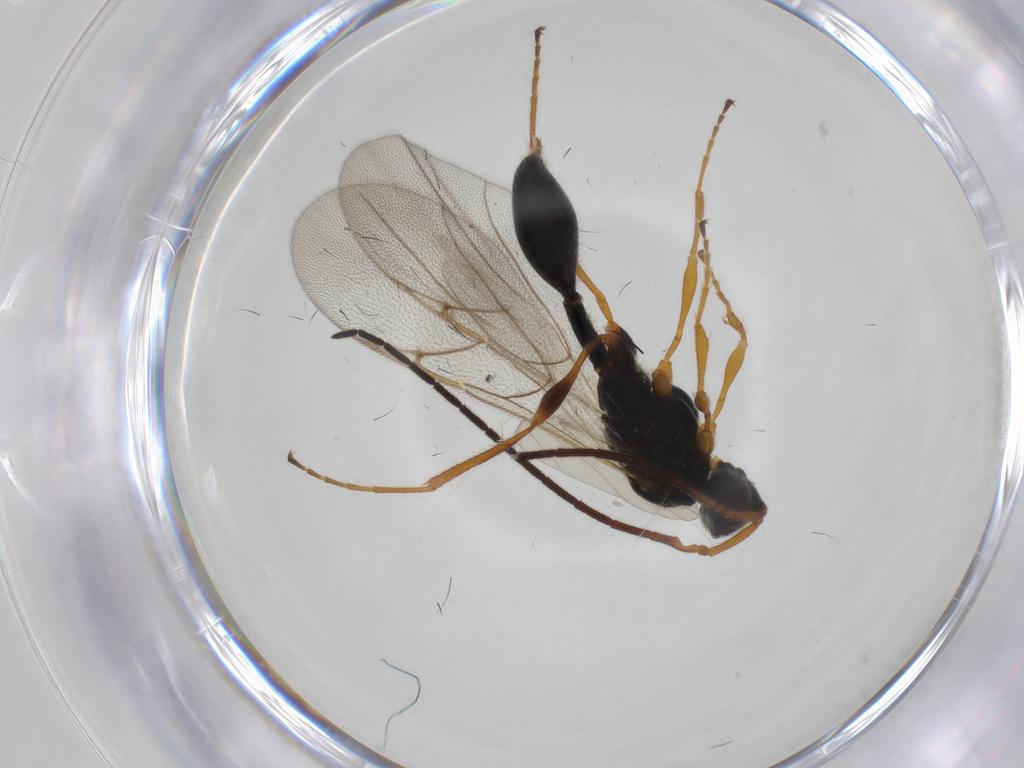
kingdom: Animalia
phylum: Arthropoda
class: Insecta
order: Hymenoptera
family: Diapriidae
